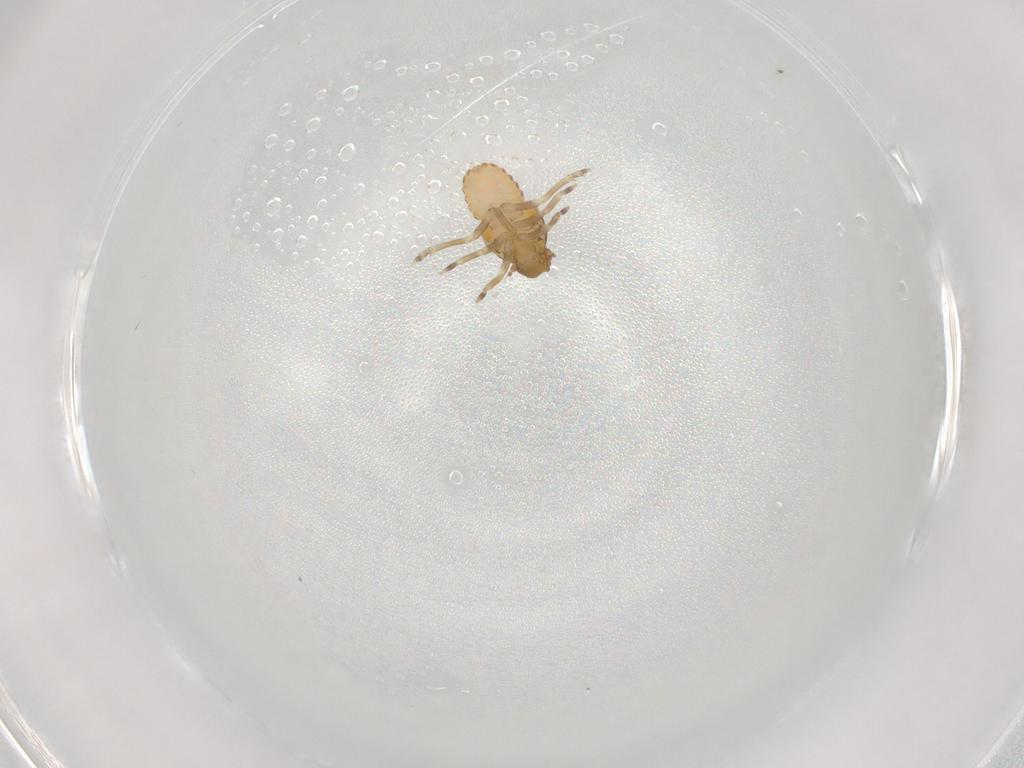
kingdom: Animalia
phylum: Arthropoda
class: Insecta
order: Hemiptera
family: Flatidae
